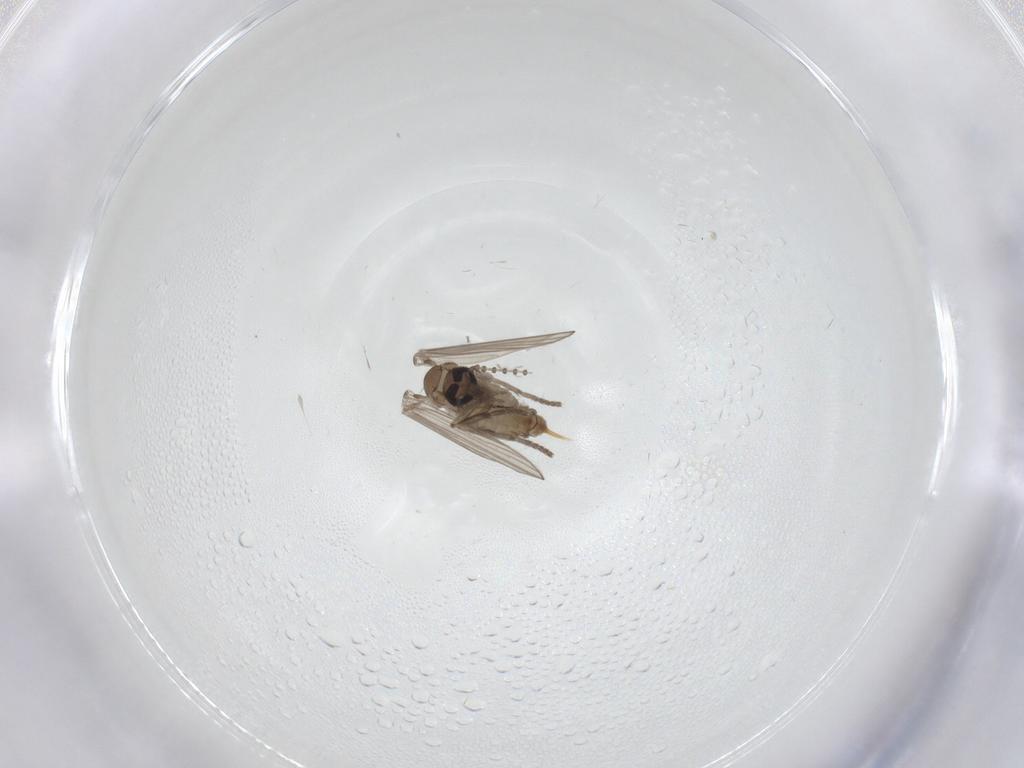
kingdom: Animalia
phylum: Arthropoda
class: Insecta
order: Diptera
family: Psychodidae
